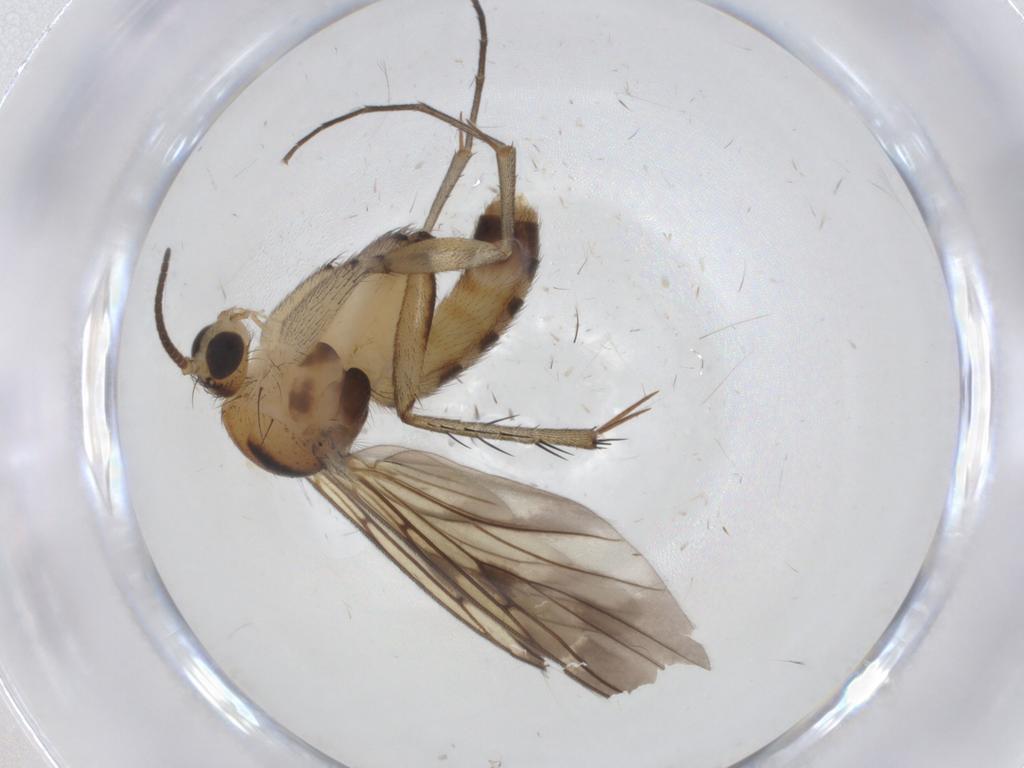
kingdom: Animalia
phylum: Arthropoda
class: Insecta
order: Diptera
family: Mycetophilidae
